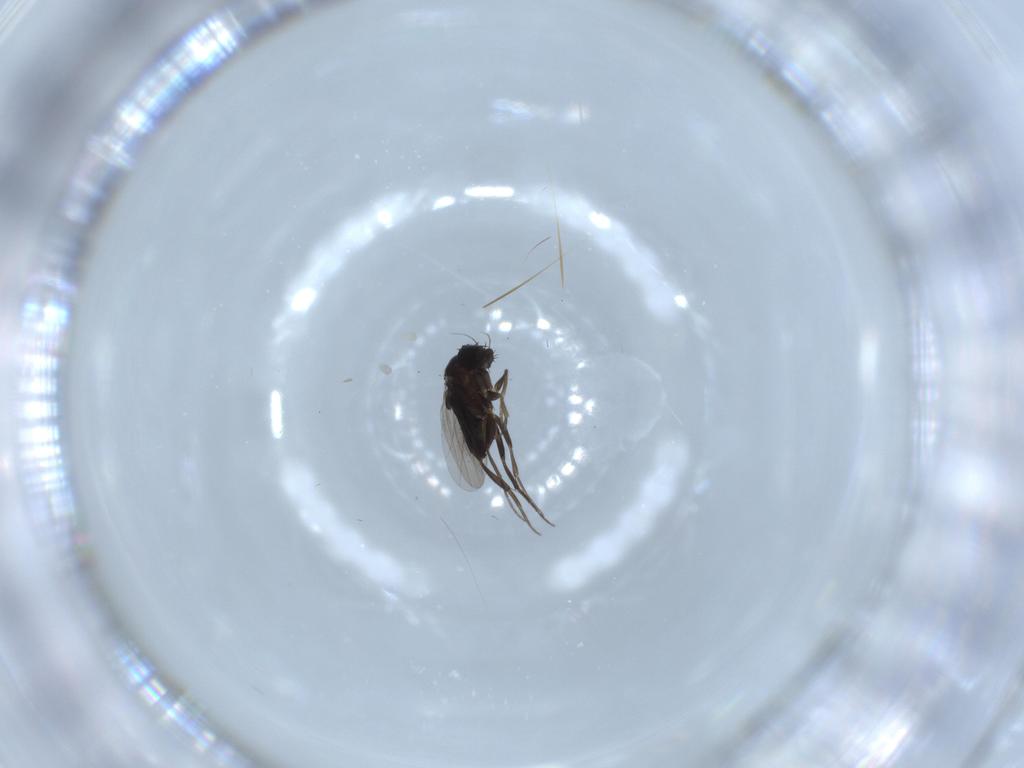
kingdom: Animalia
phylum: Arthropoda
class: Insecta
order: Diptera
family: Phoridae
